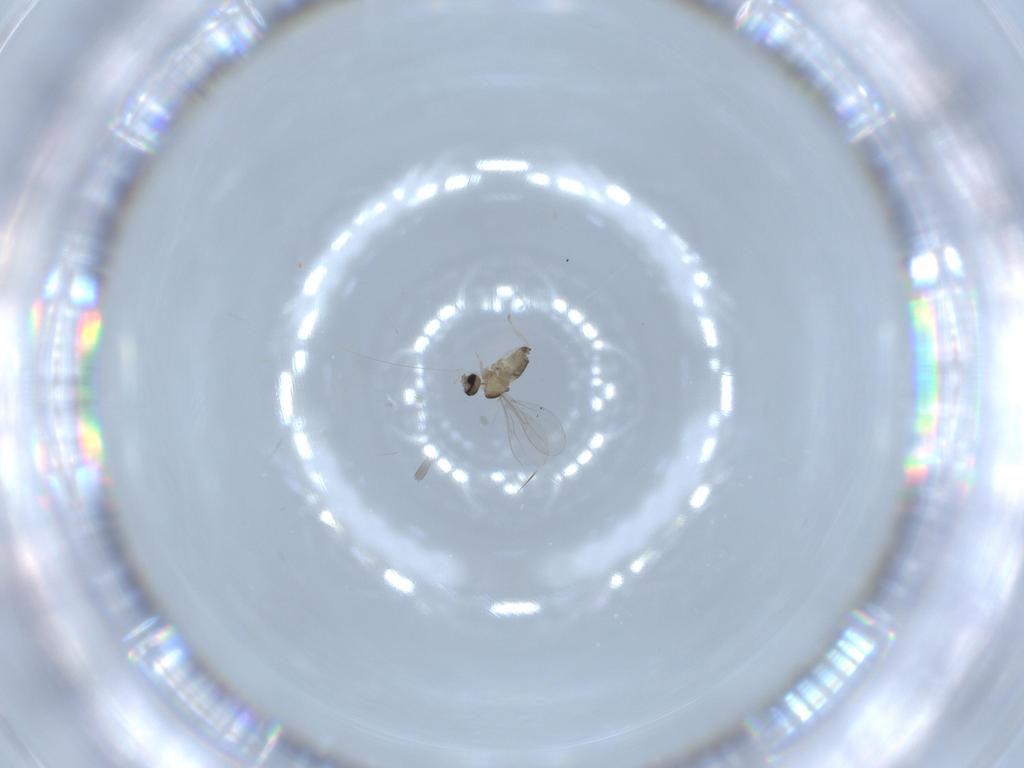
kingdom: Animalia
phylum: Arthropoda
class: Insecta
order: Diptera
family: Cecidomyiidae
